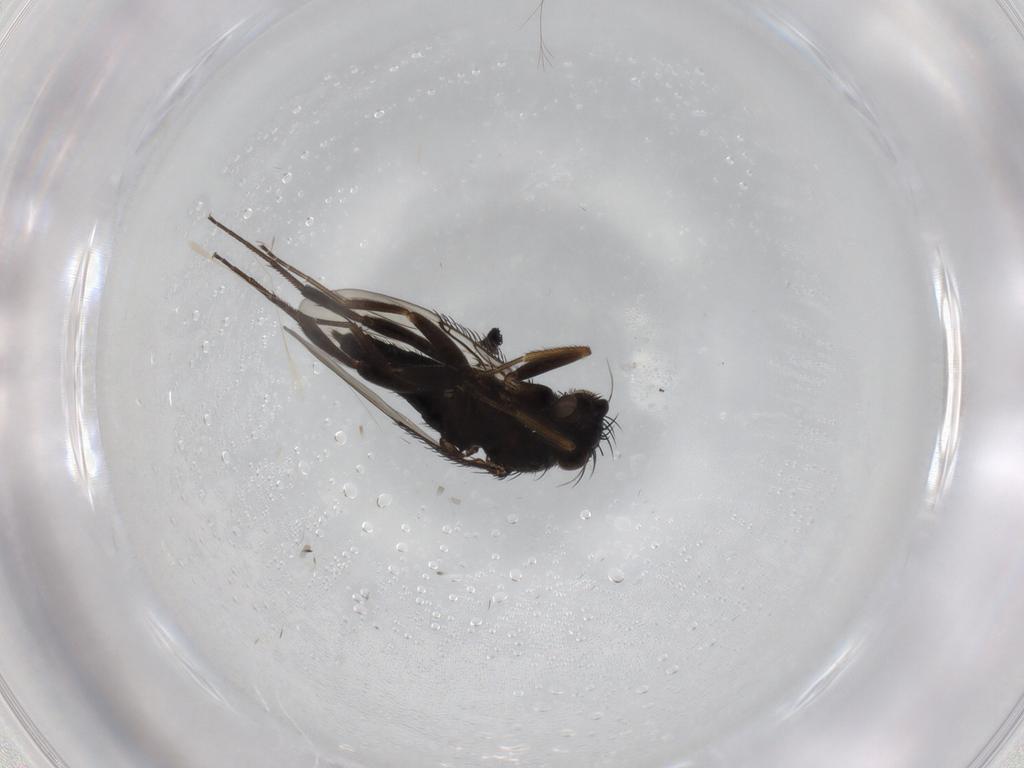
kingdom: Animalia
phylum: Arthropoda
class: Insecta
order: Diptera
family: Phoridae
